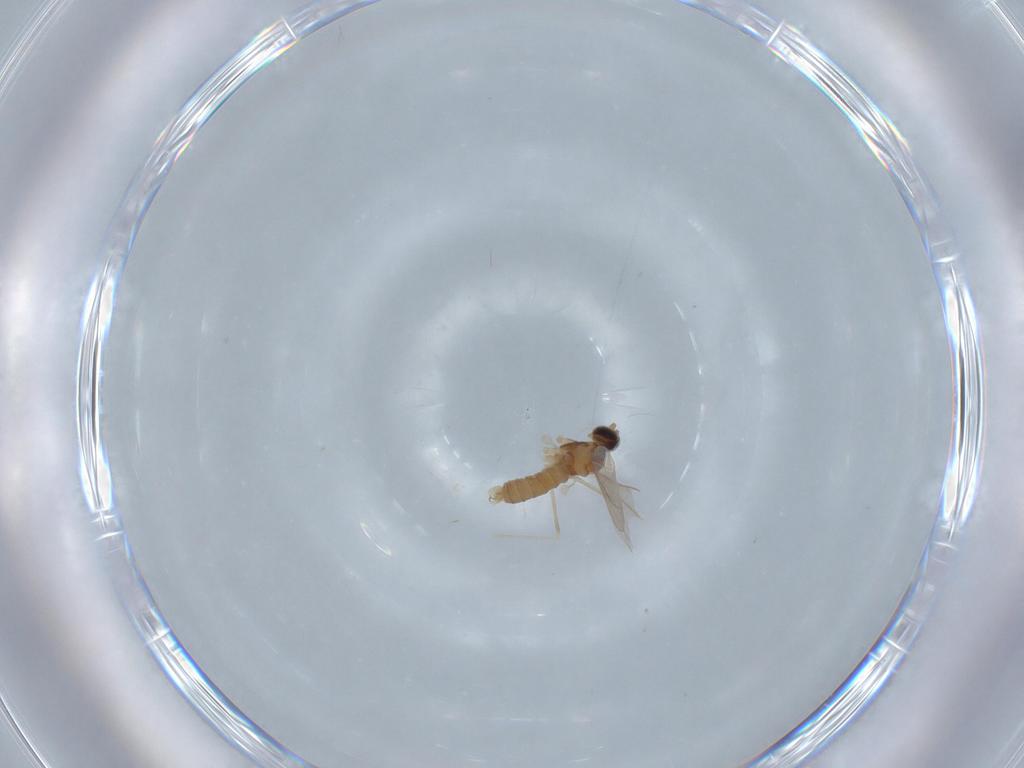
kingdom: Animalia
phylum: Arthropoda
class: Insecta
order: Diptera
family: Cecidomyiidae
